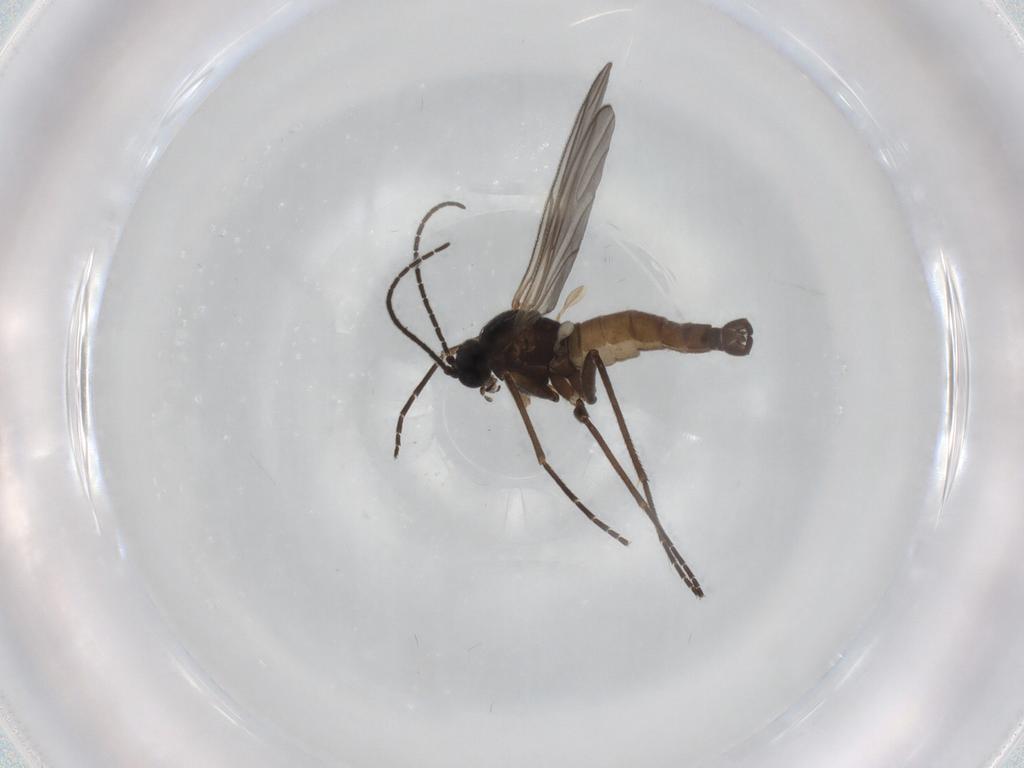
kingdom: Animalia
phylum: Arthropoda
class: Insecta
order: Diptera
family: Sciaridae
